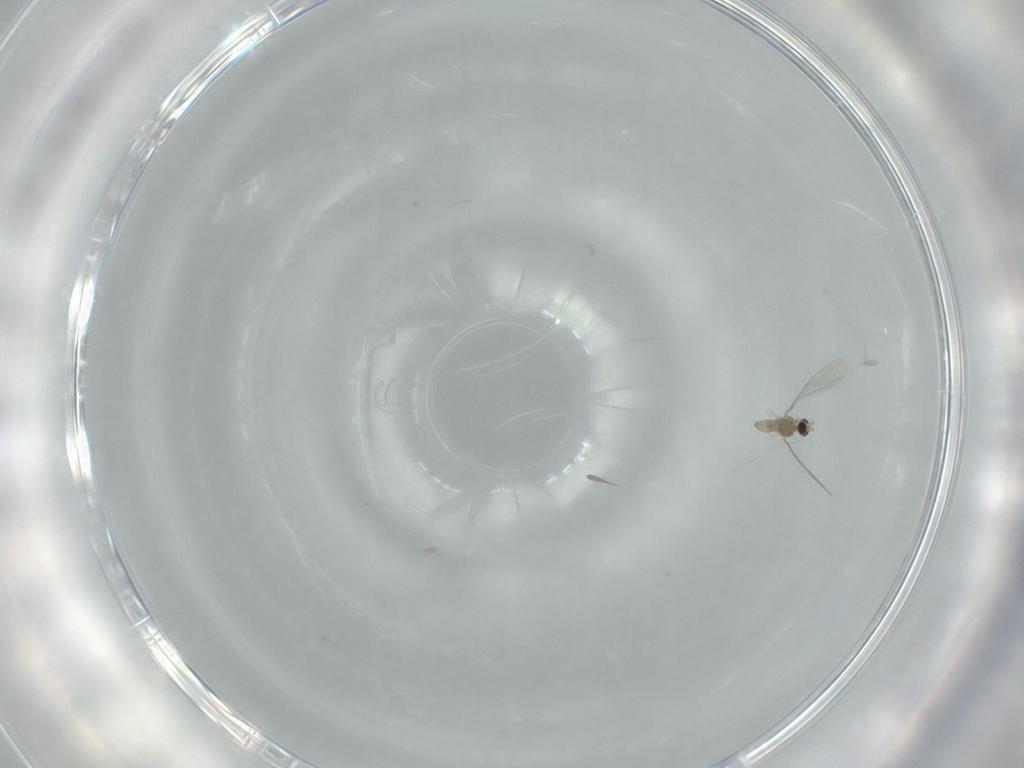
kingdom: Animalia
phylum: Arthropoda
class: Insecta
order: Diptera
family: Cecidomyiidae
